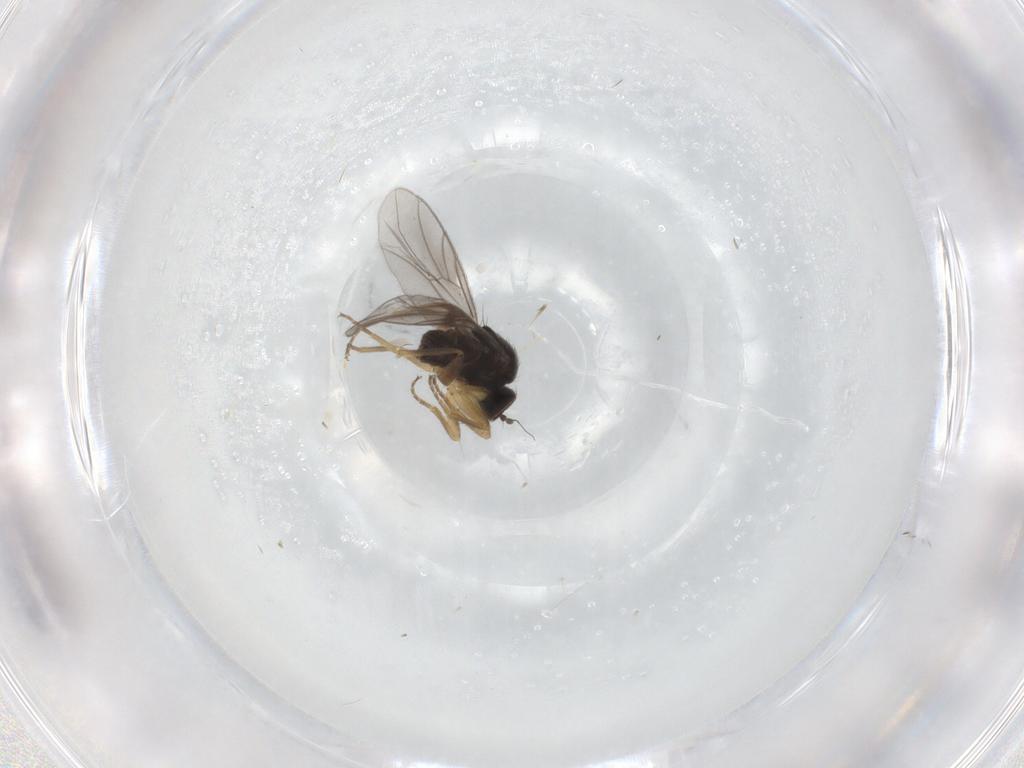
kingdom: Animalia
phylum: Arthropoda
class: Insecta
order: Diptera
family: Hybotidae
